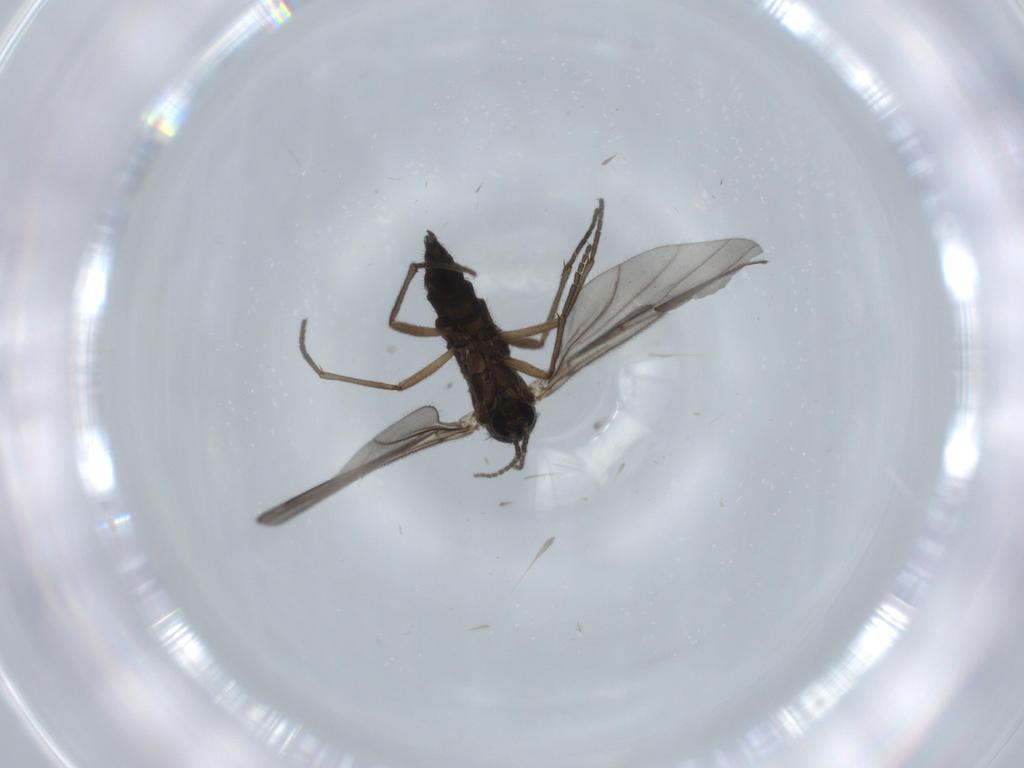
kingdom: Animalia
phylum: Arthropoda
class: Insecta
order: Diptera
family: Sciaridae
